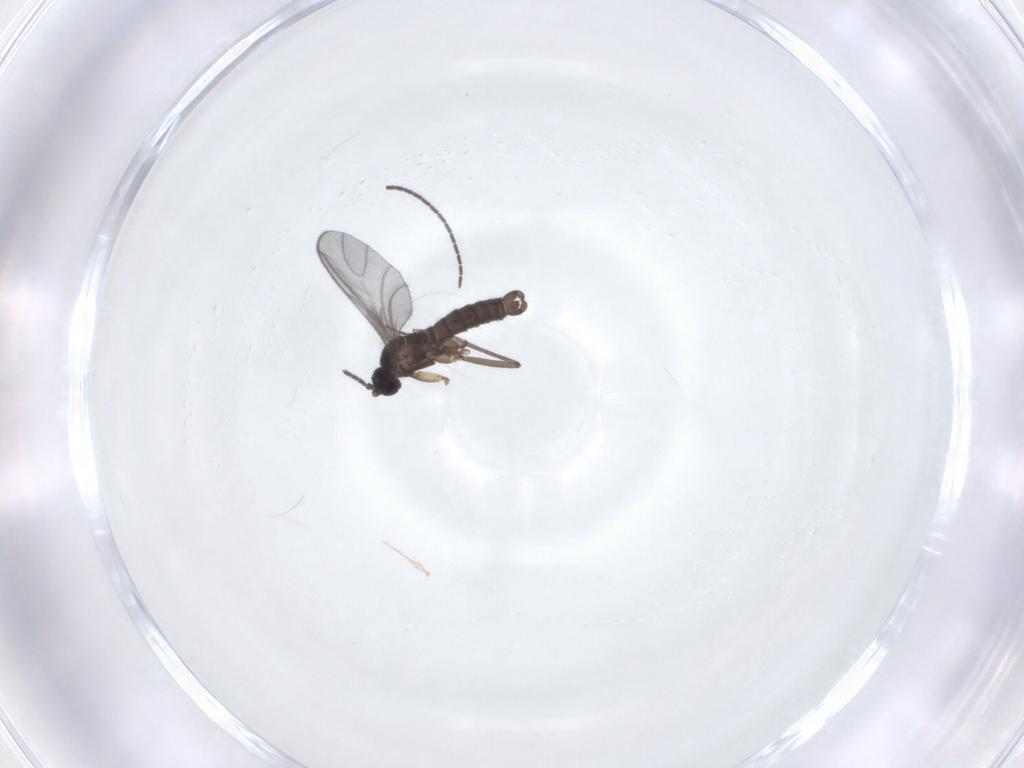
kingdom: Animalia
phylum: Arthropoda
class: Insecta
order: Diptera
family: Sciaridae
